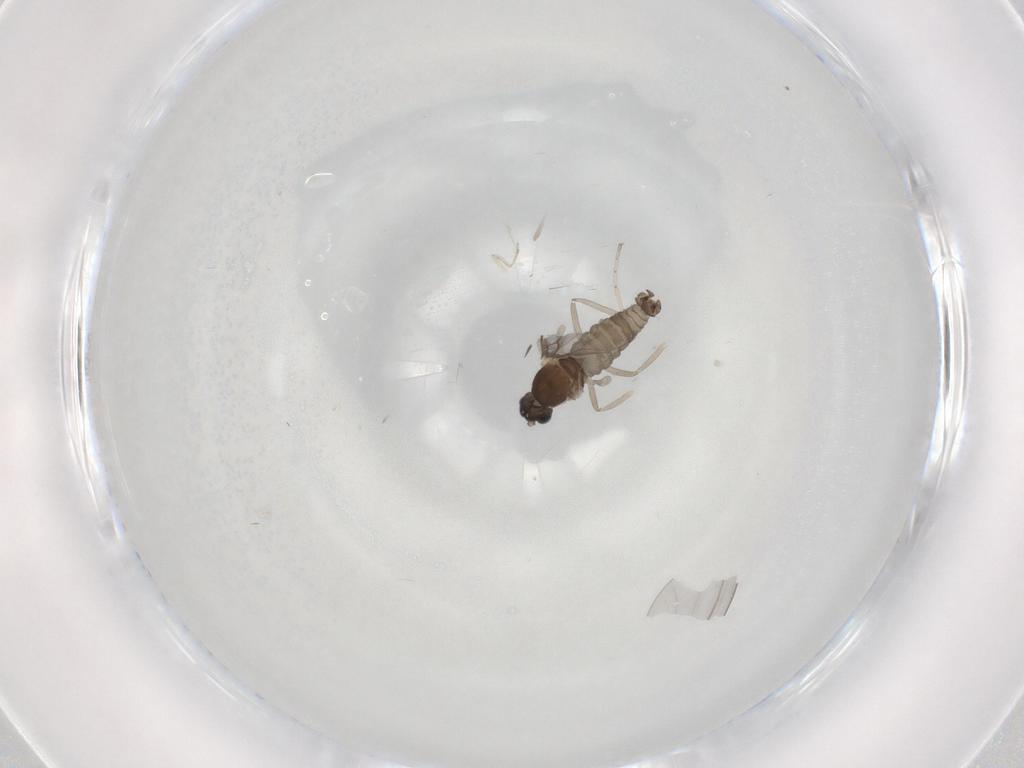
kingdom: Animalia
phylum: Arthropoda
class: Insecta
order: Diptera
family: Cecidomyiidae
